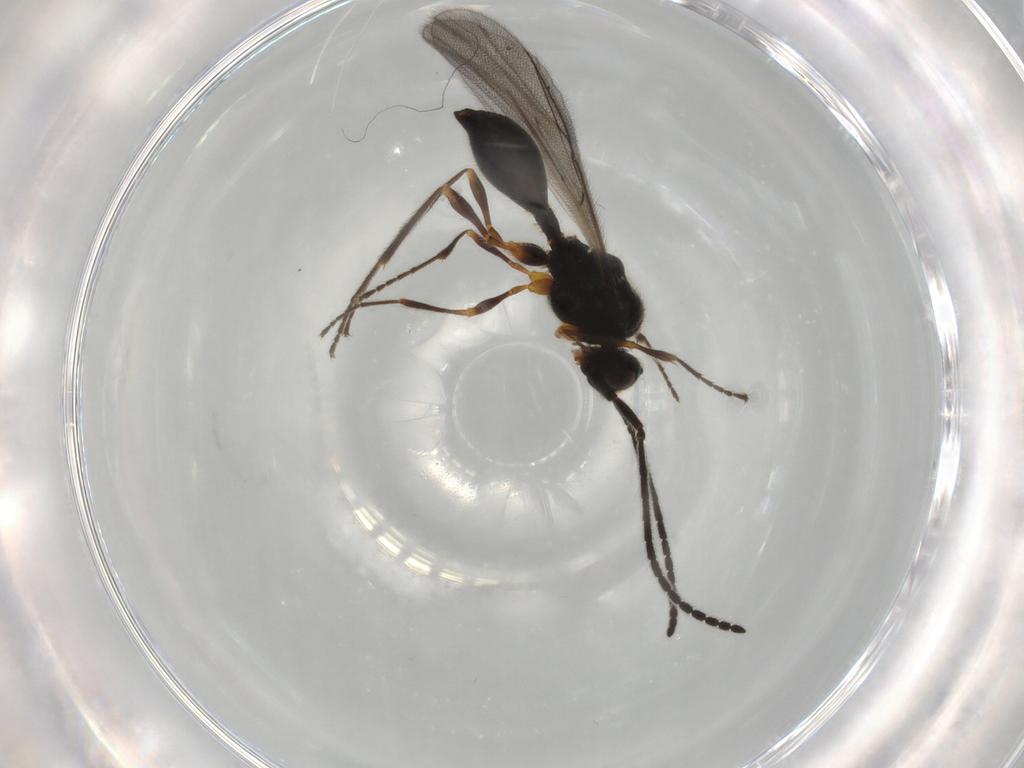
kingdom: Animalia
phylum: Arthropoda
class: Insecta
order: Hymenoptera
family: Diapriidae
